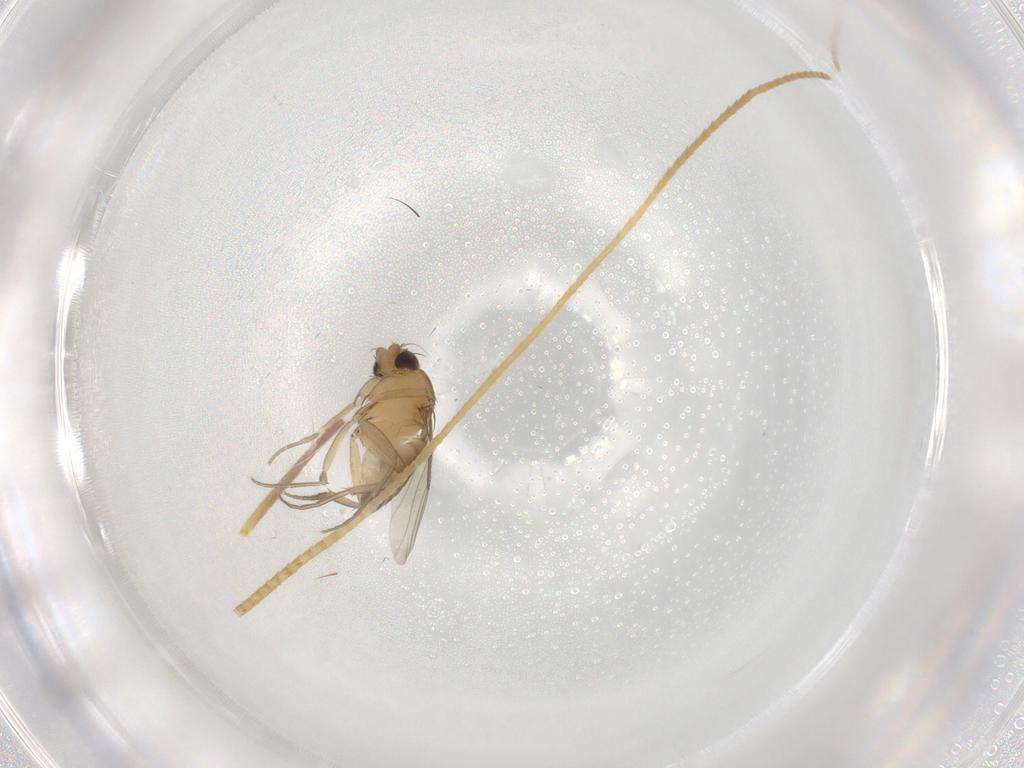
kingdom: Animalia
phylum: Arthropoda
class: Insecta
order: Diptera
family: Phoridae
